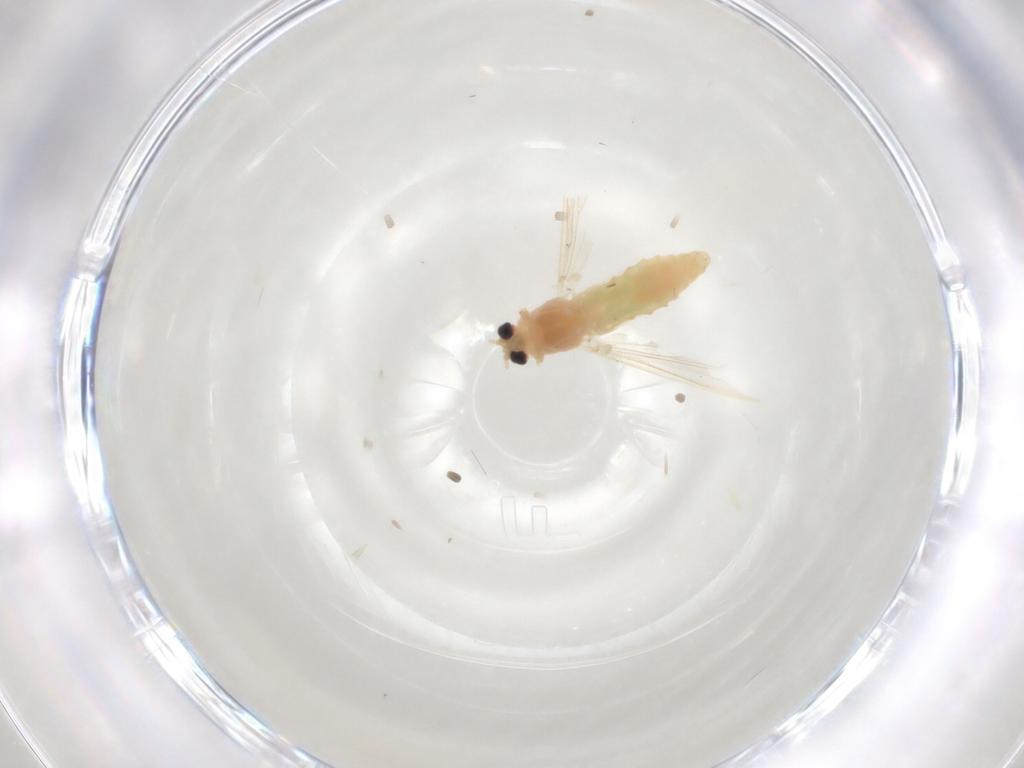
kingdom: Animalia
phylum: Arthropoda
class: Insecta
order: Diptera
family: Chironomidae
